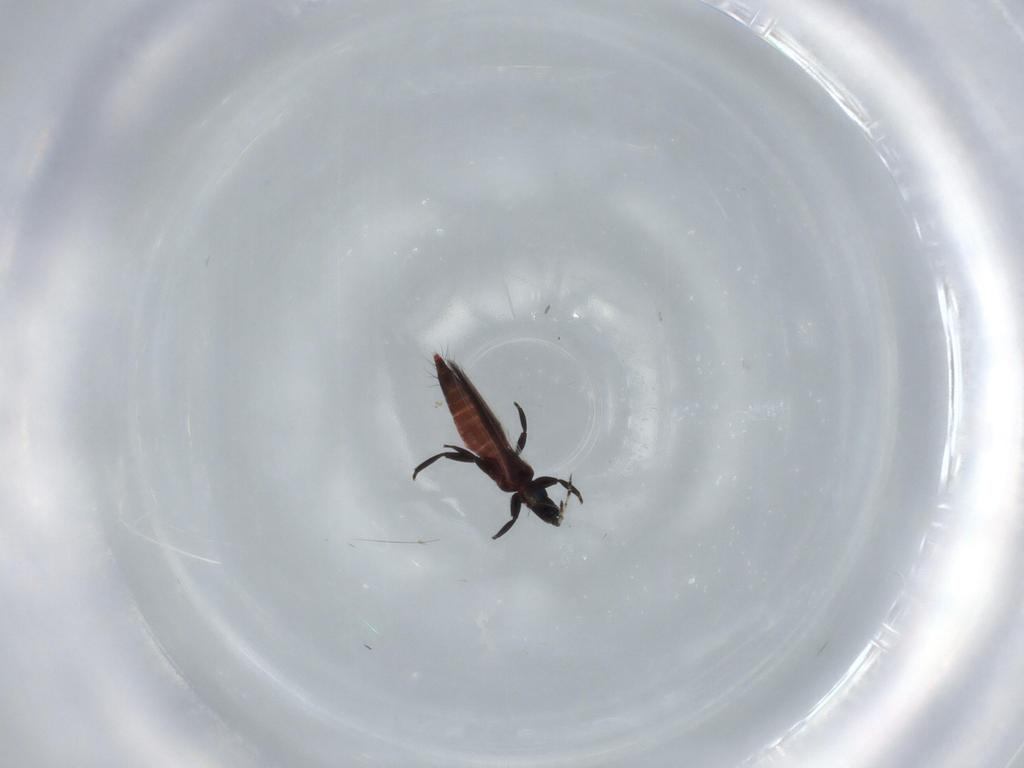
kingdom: Animalia
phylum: Arthropoda
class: Insecta
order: Thysanoptera
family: Aeolothripidae
